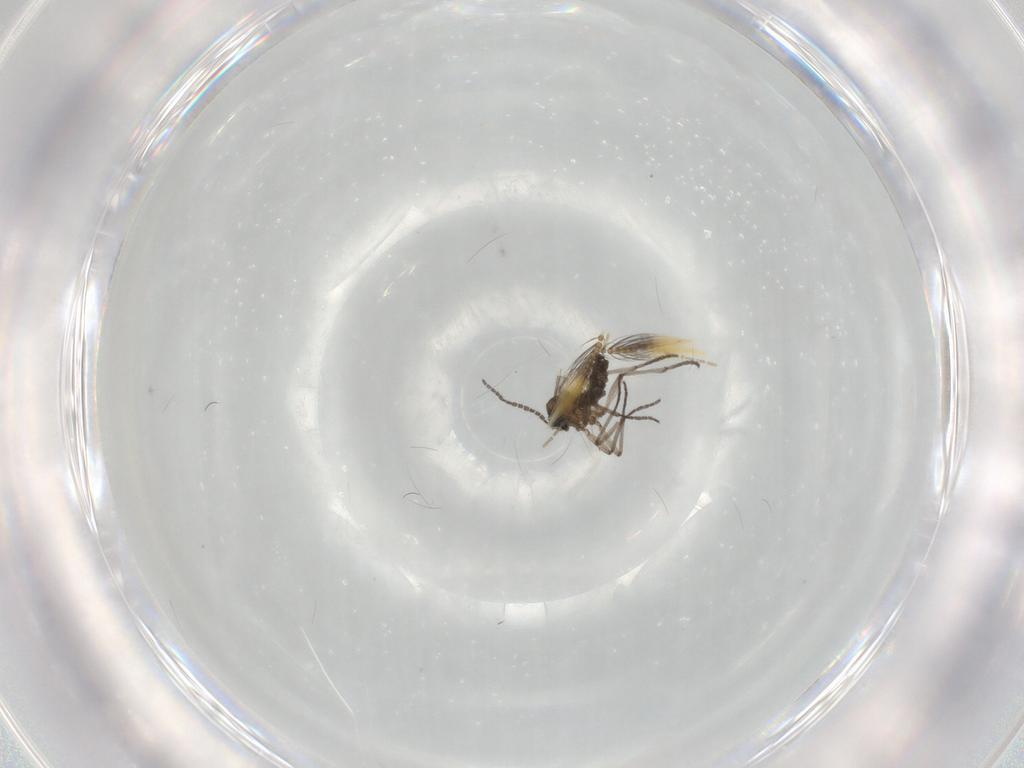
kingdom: Animalia
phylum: Arthropoda
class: Insecta
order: Diptera
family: Sciaridae
